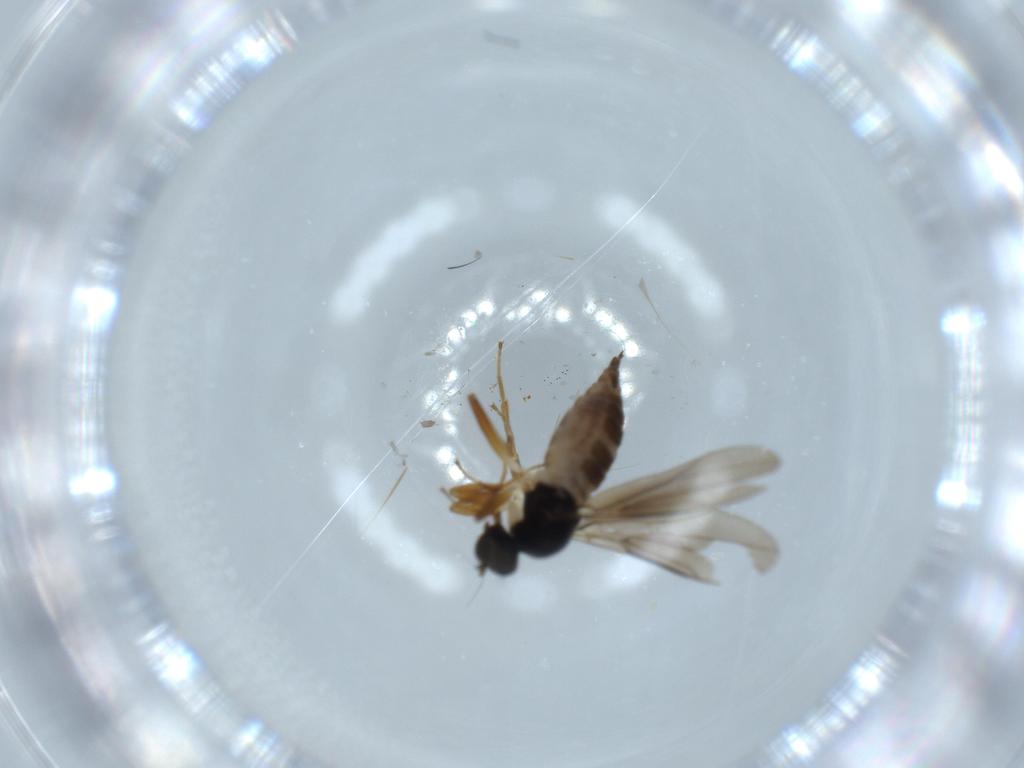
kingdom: Animalia
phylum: Arthropoda
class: Insecta
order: Diptera
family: Hybotidae
